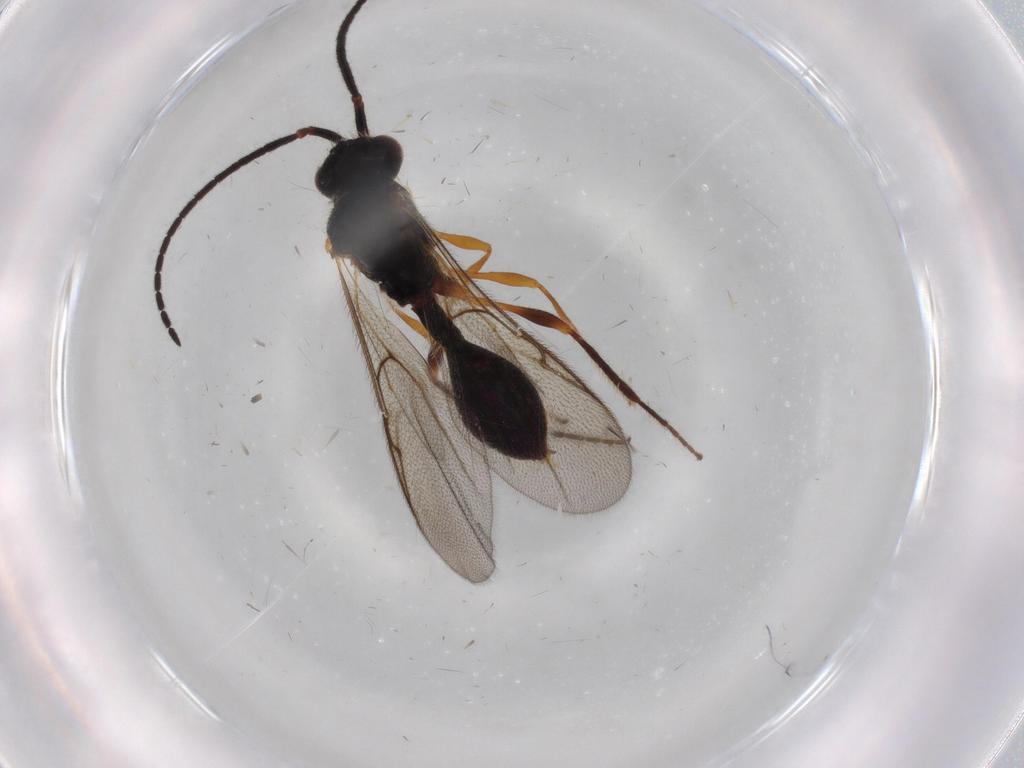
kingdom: Animalia
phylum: Arthropoda
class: Insecta
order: Hymenoptera
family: Diapriidae
